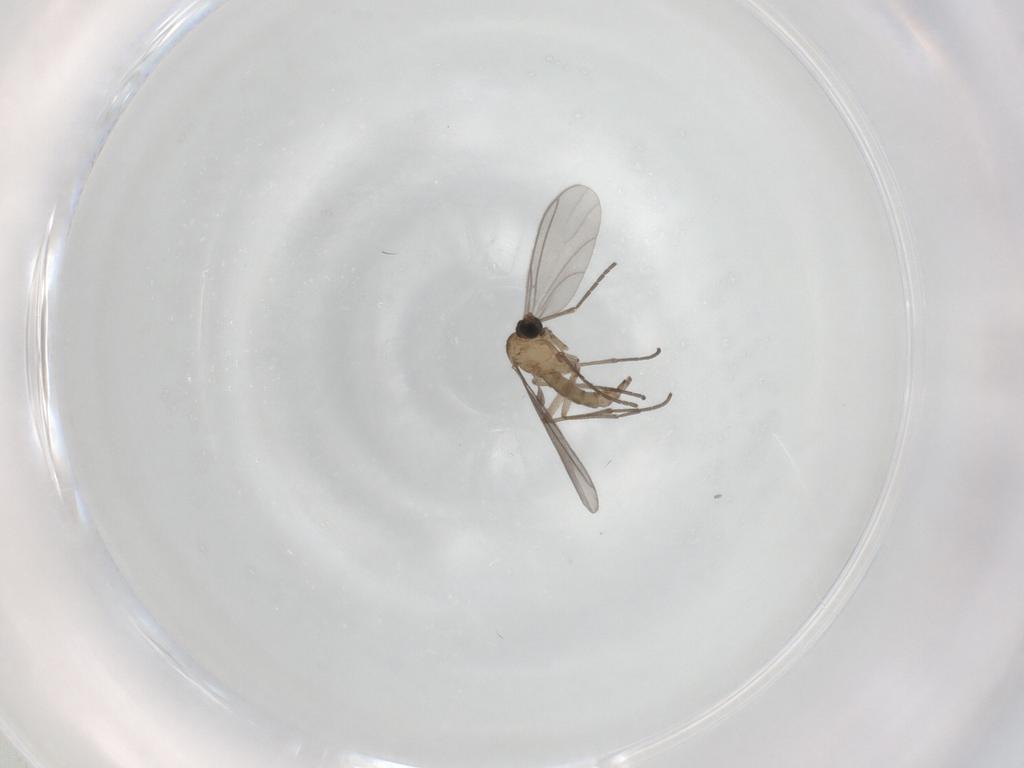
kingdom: Animalia
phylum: Arthropoda
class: Insecta
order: Diptera
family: Sciaridae
